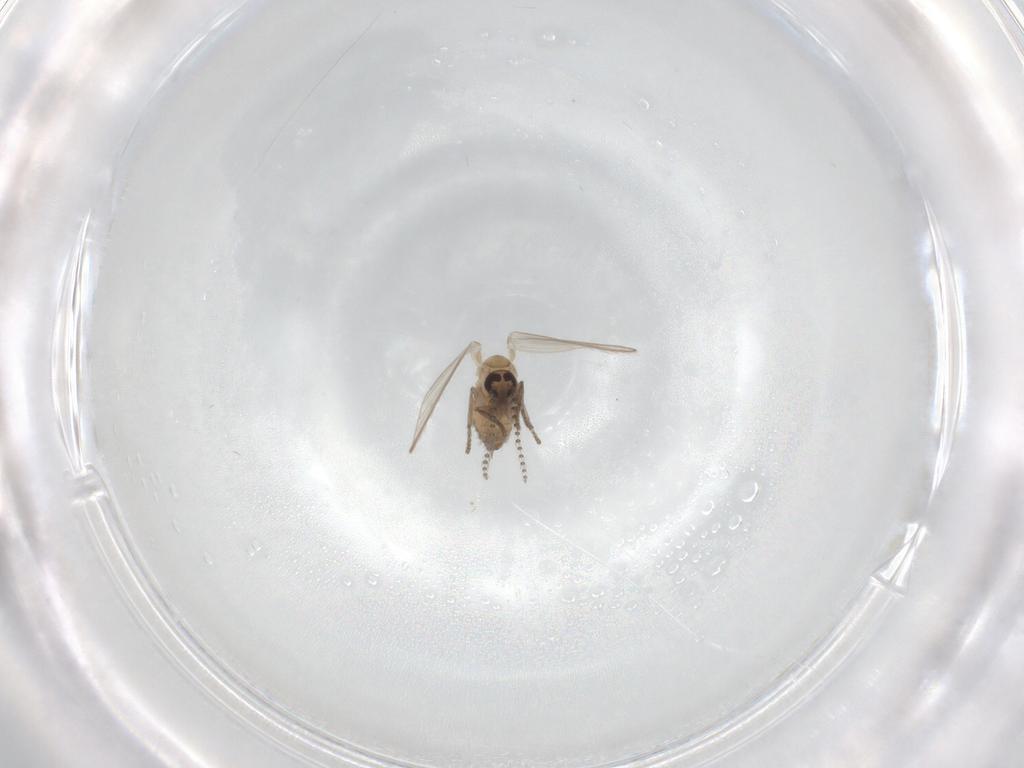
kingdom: Animalia
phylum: Arthropoda
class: Insecta
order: Diptera
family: Psychodidae
